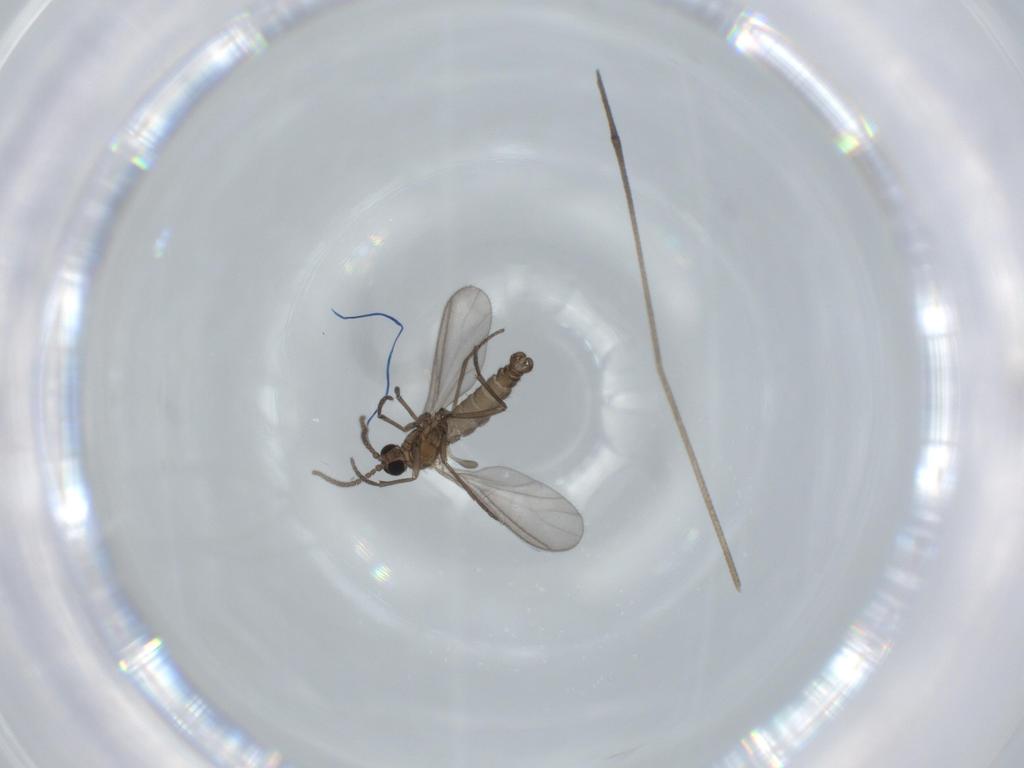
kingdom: Animalia
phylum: Arthropoda
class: Insecta
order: Diptera
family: Sciaridae
